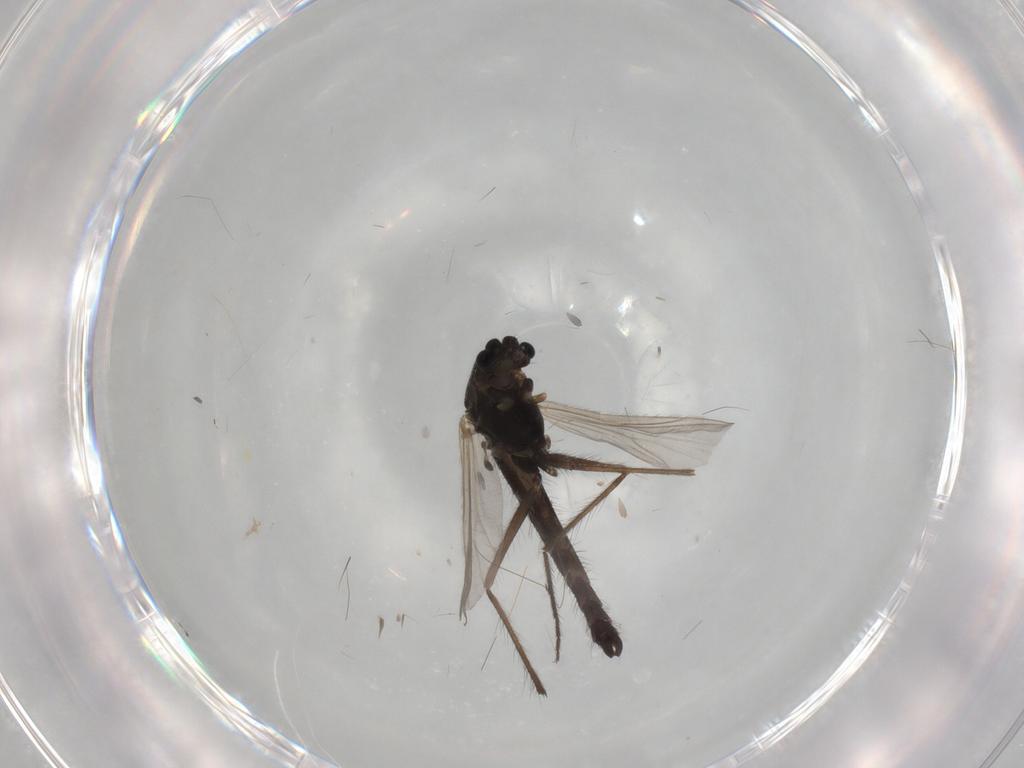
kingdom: Animalia
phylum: Arthropoda
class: Insecta
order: Diptera
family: Chironomidae
